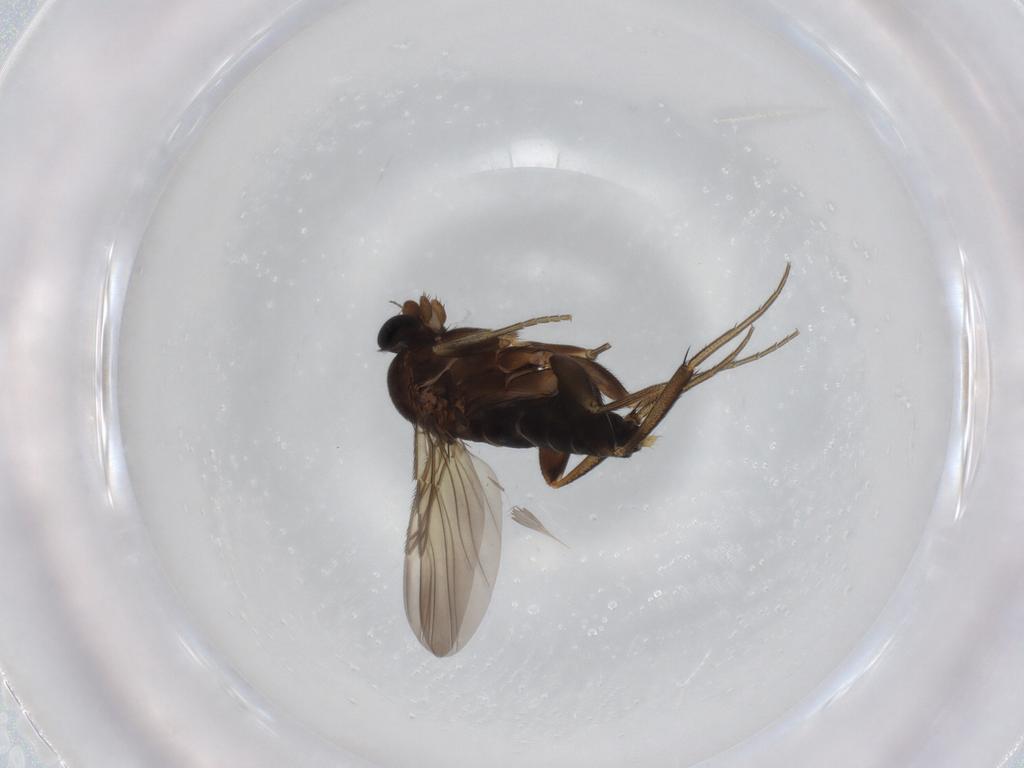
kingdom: Animalia
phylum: Arthropoda
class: Insecta
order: Diptera
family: Phoridae
